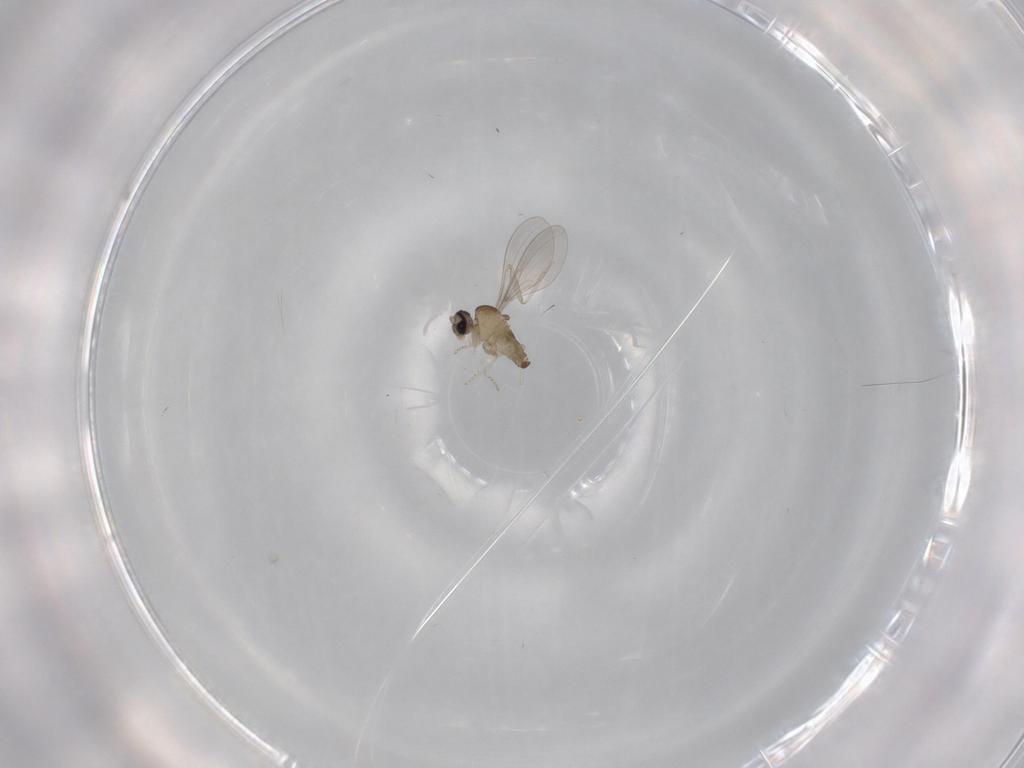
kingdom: Animalia
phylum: Arthropoda
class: Insecta
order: Diptera
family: Cecidomyiidae
